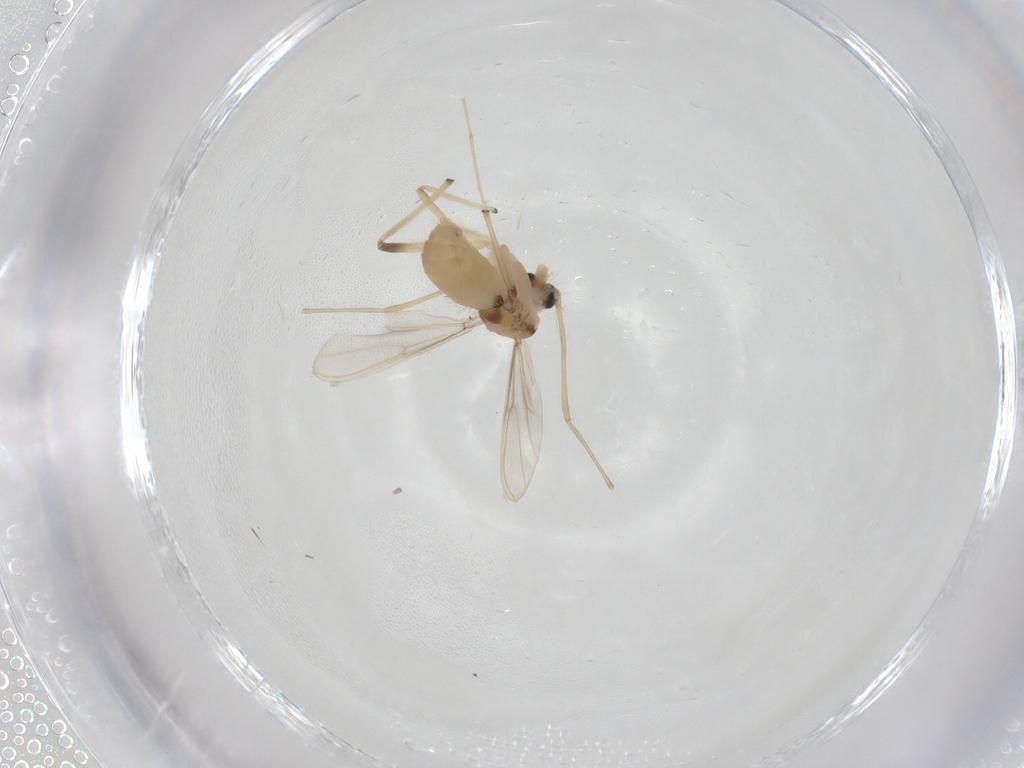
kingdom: Animalia
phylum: Arthropoda
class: Insecta
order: Diptera
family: Chironomidae
